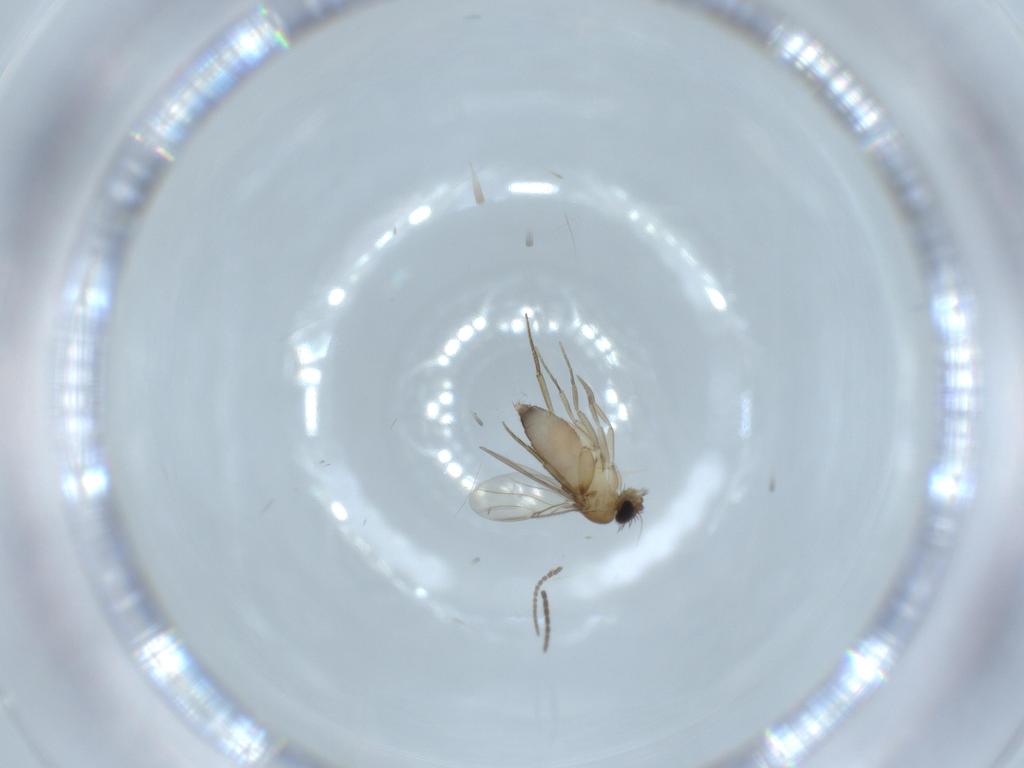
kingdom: Animalia
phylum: Arthropoda
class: Insecta
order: Diptera
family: Phoridae
